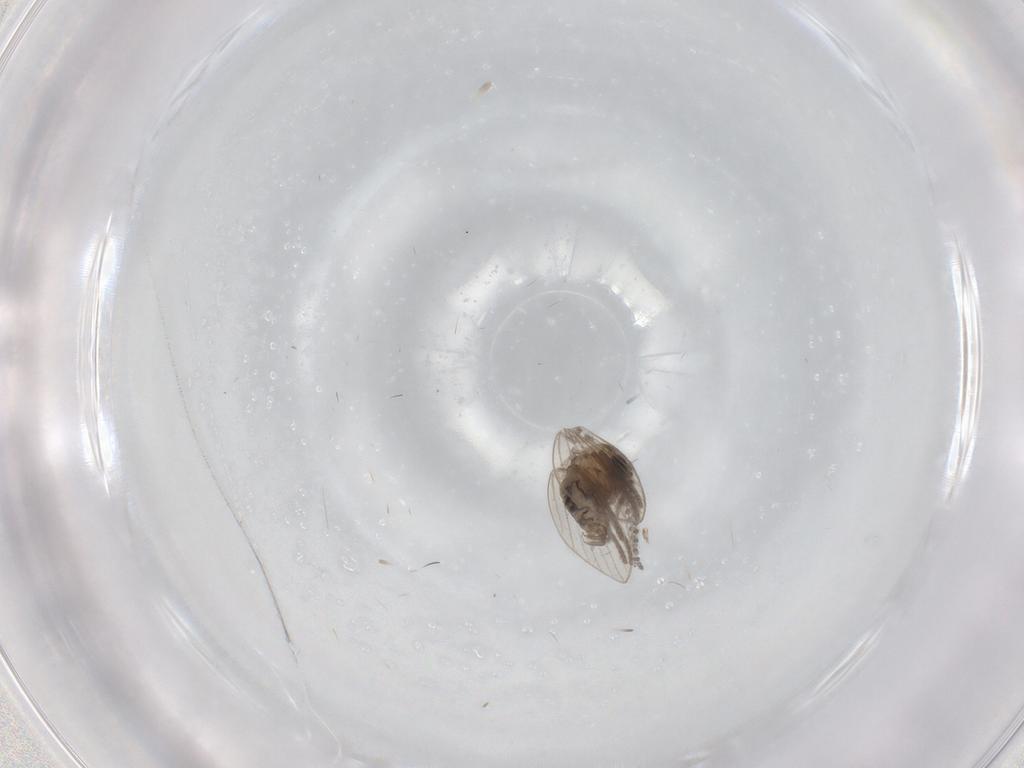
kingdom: Animalia
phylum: Arthropoda
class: Insecta
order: Diptera
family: Psychodidae
